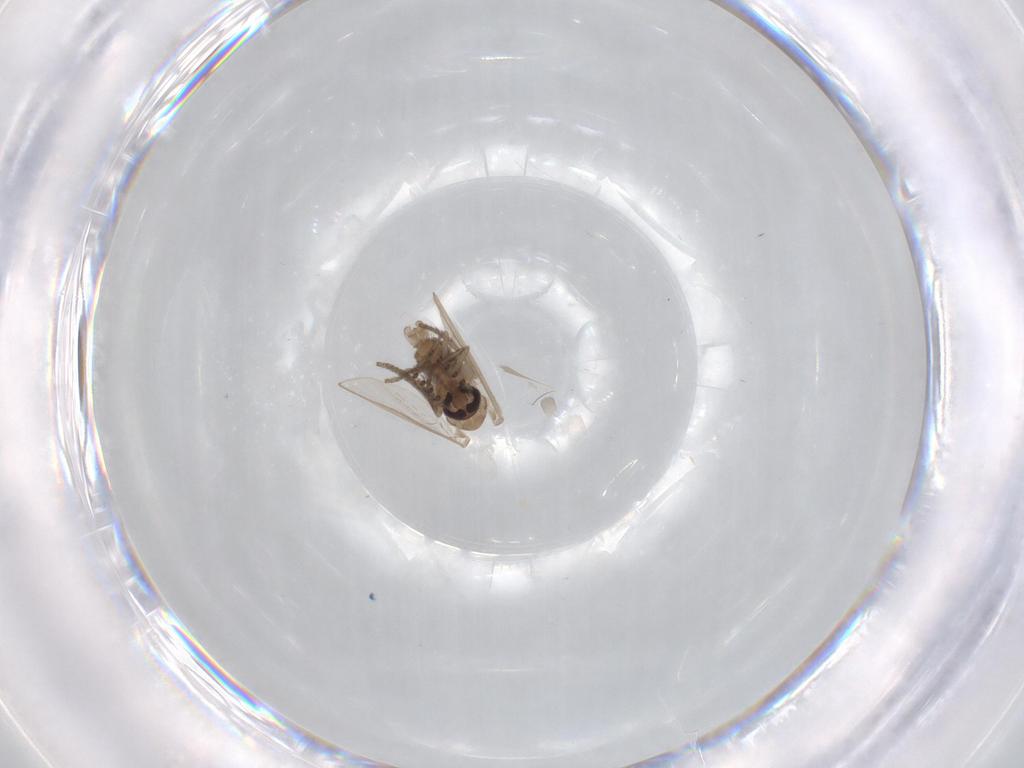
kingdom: Animalia
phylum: Arthropoda
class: Insecta
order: Diptera
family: Psychodidae
